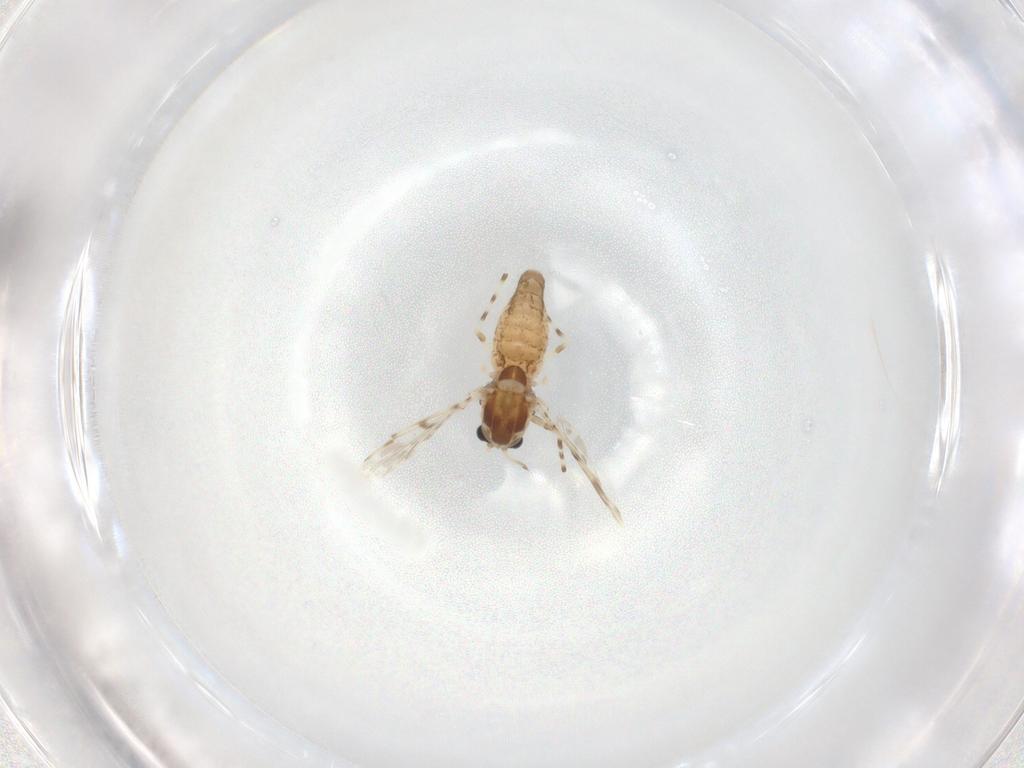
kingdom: Animalia
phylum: Arthropoda
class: Insecta
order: Diptera
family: Chironomidae
